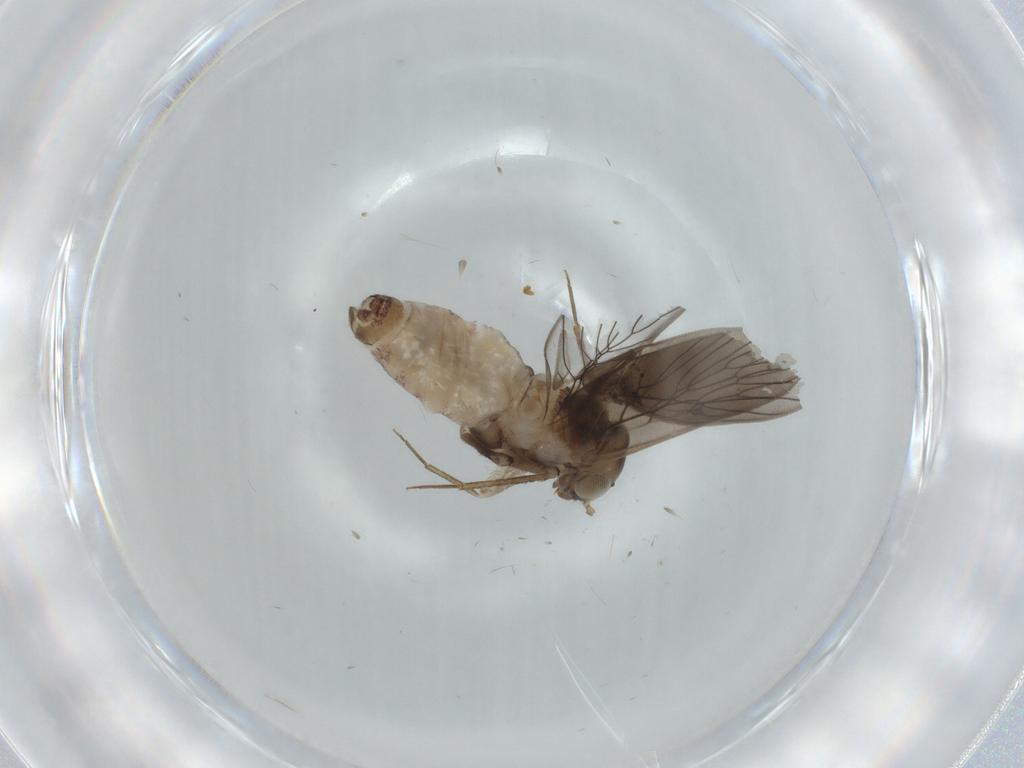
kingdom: Animalia
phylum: Arthropoda
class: Insecta
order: Psocodea
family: Lepidopsocidae
